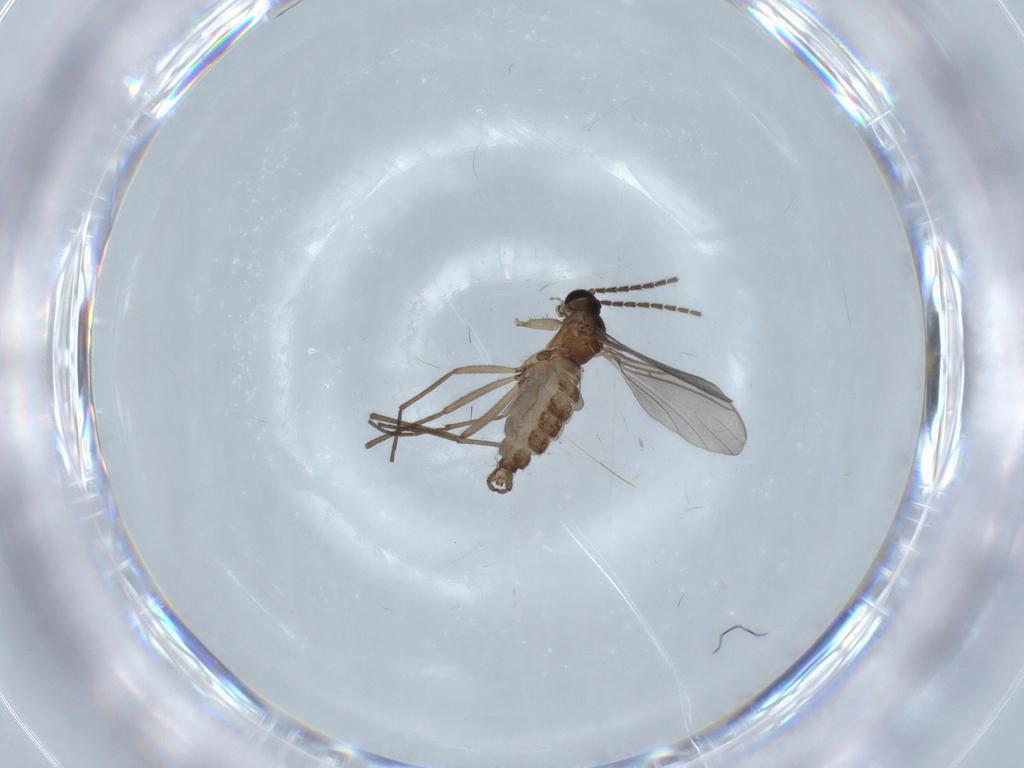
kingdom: Animalia
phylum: Arthropoda
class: Insecta
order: Diptera
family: Sciaridae
